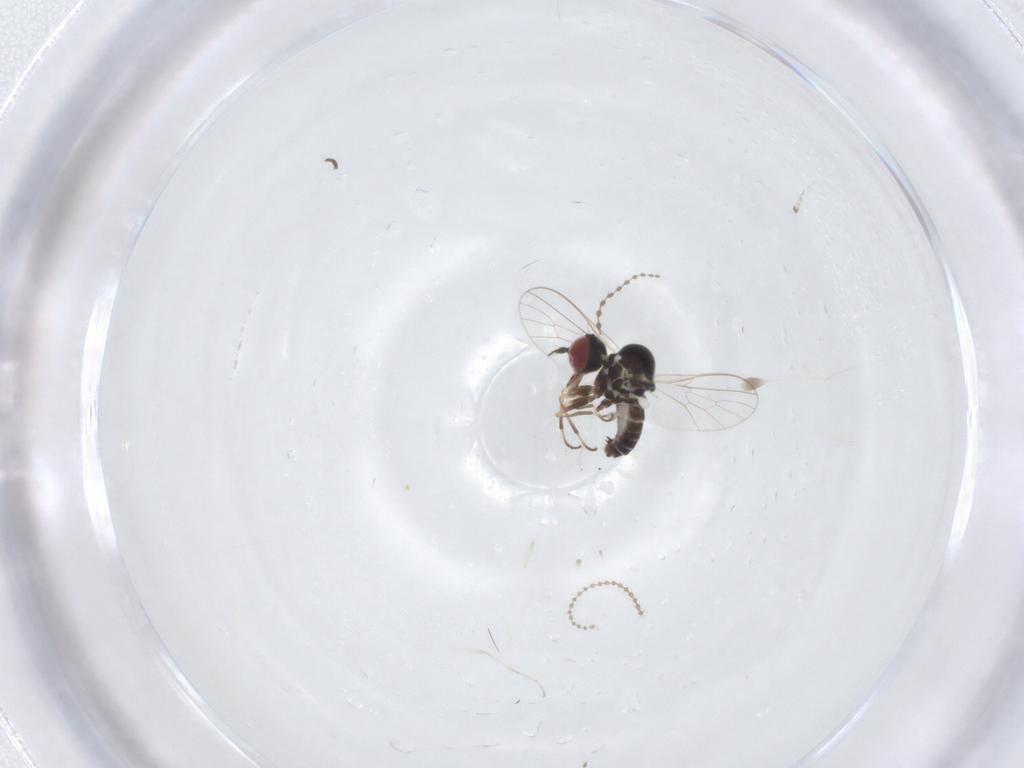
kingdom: Animalia
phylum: Arthropoda
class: Insecta
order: Diptera
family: Mythicomyiidae
